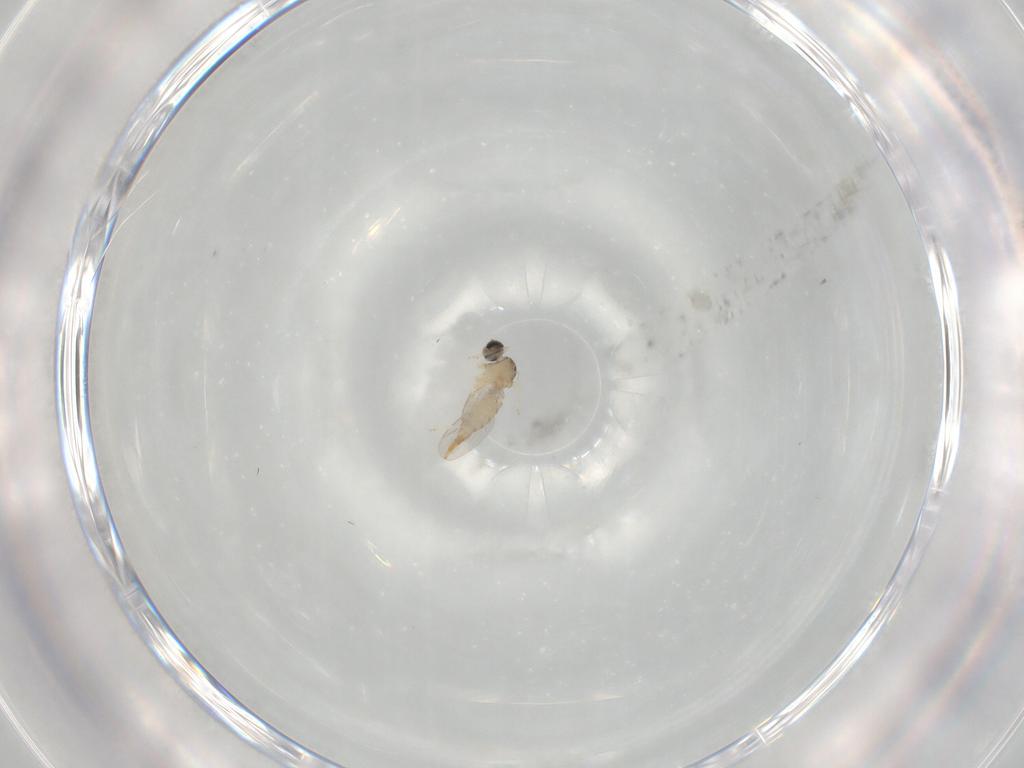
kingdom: Animalia
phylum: Arthropoda
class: Insecta
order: Diptera
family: Cecidomyiidae
